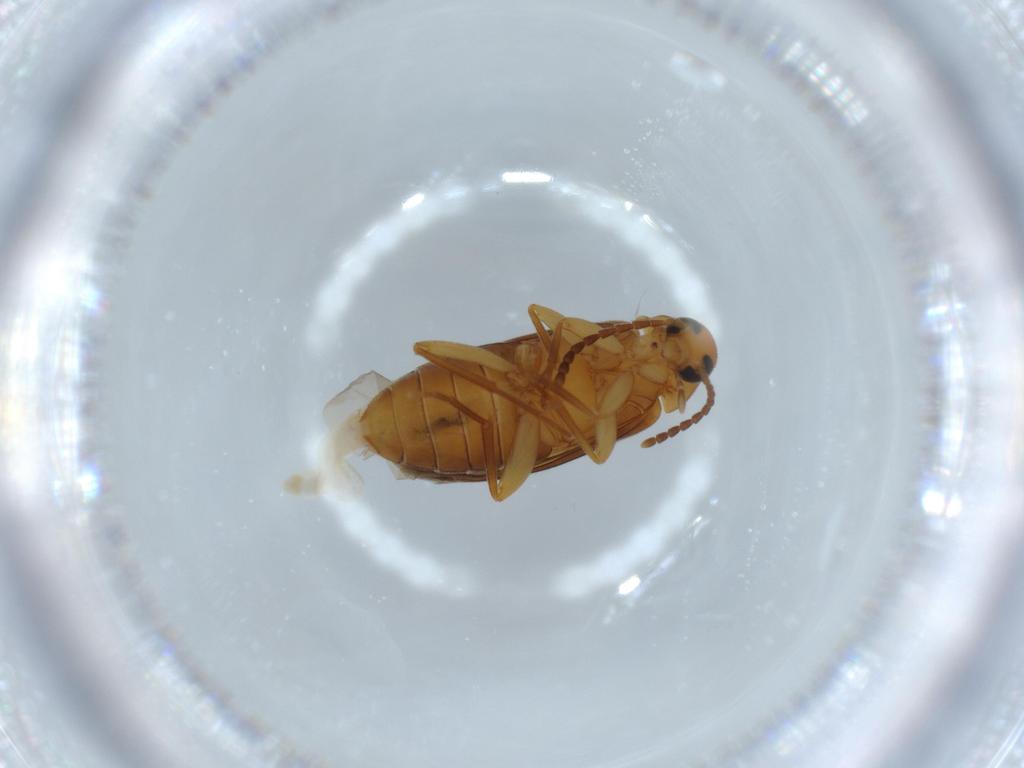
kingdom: Animalia
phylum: Arthropoda
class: Insecta
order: Coleoptera
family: Scraptiidae
